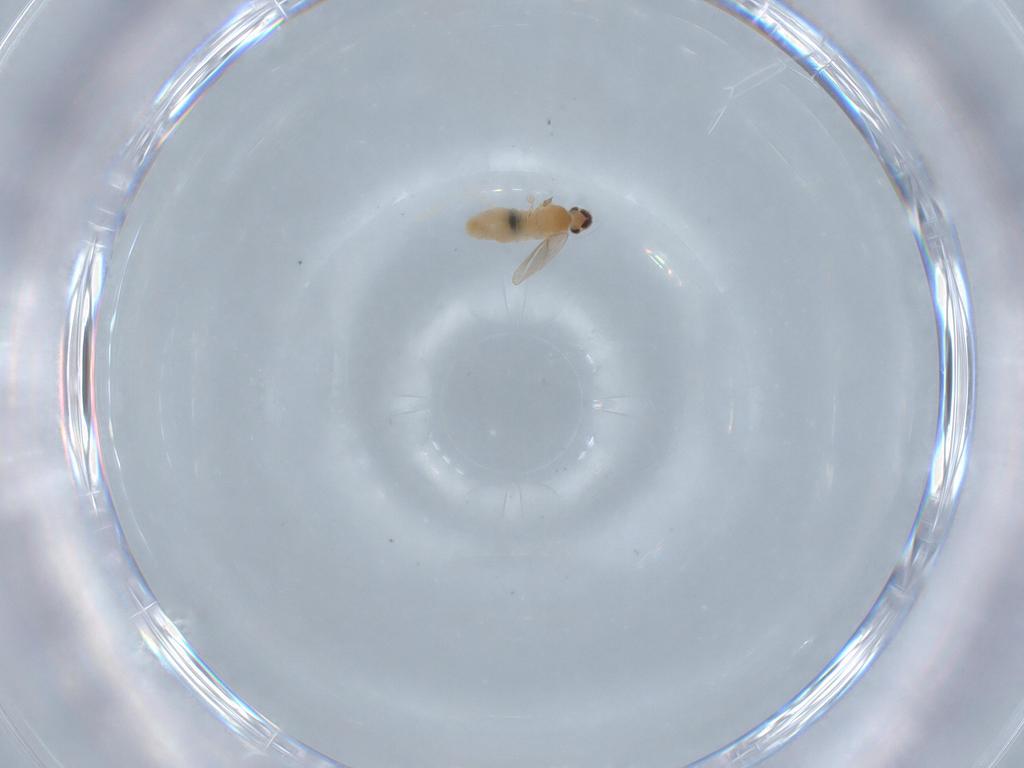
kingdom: Animalia
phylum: Arthropoda
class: Insecta
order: Diptera
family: Cecidomyiidae
